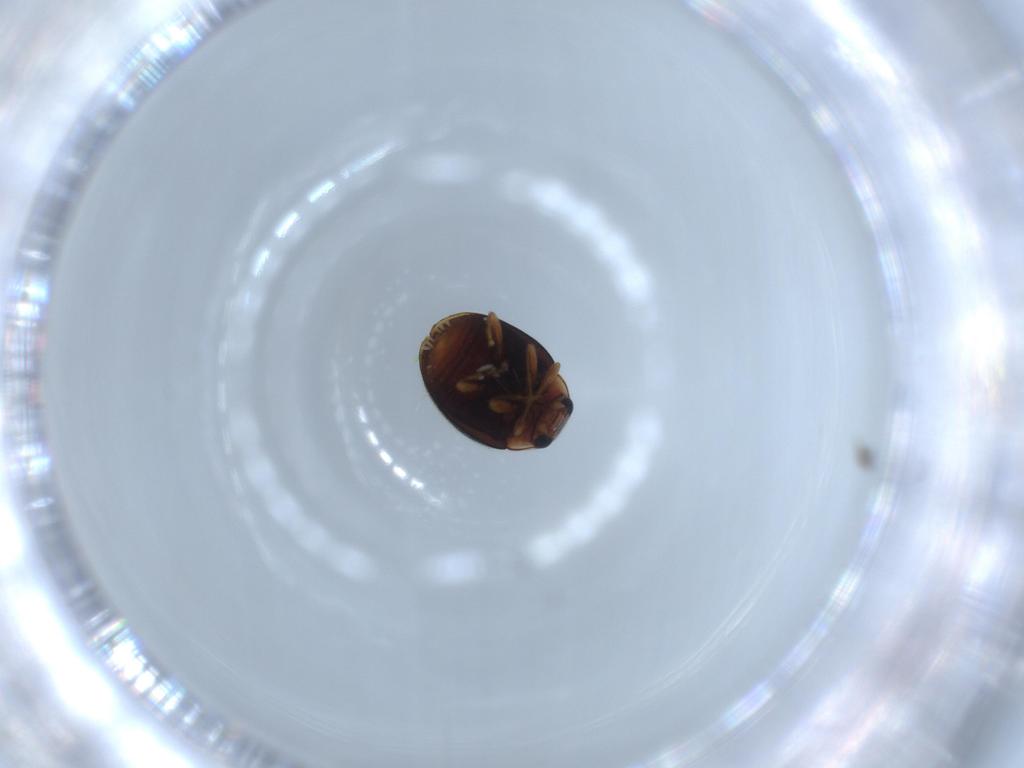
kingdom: Animalia
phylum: Arthropoda
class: Insecta
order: Coleoptera
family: Coccinellidae
